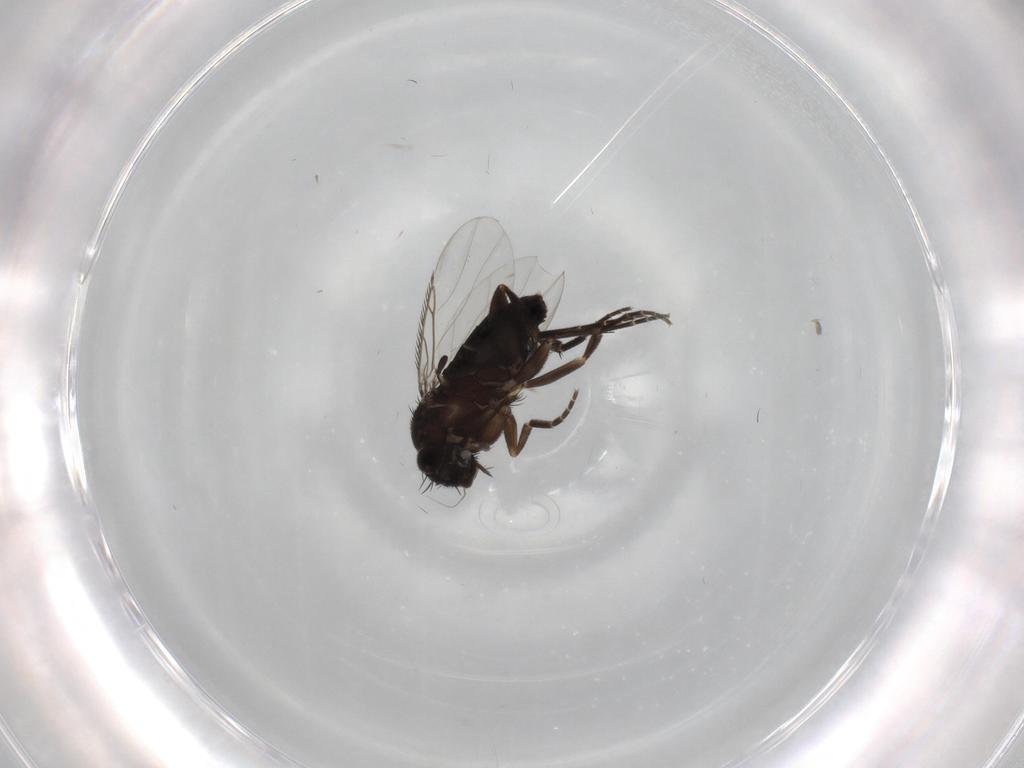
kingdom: Animalia
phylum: Arthropoda
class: Insecta
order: Diptera
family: Phoridae
